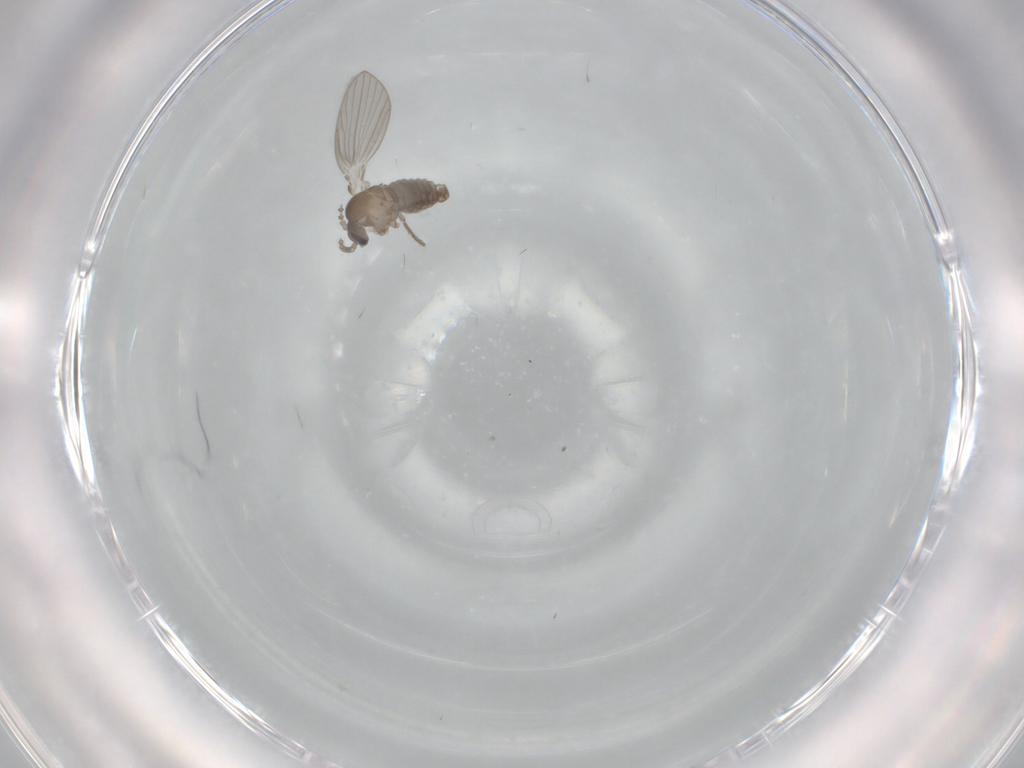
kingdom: Animalia
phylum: Arthropoda
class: Insecta
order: Diptera
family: Psychodidae
